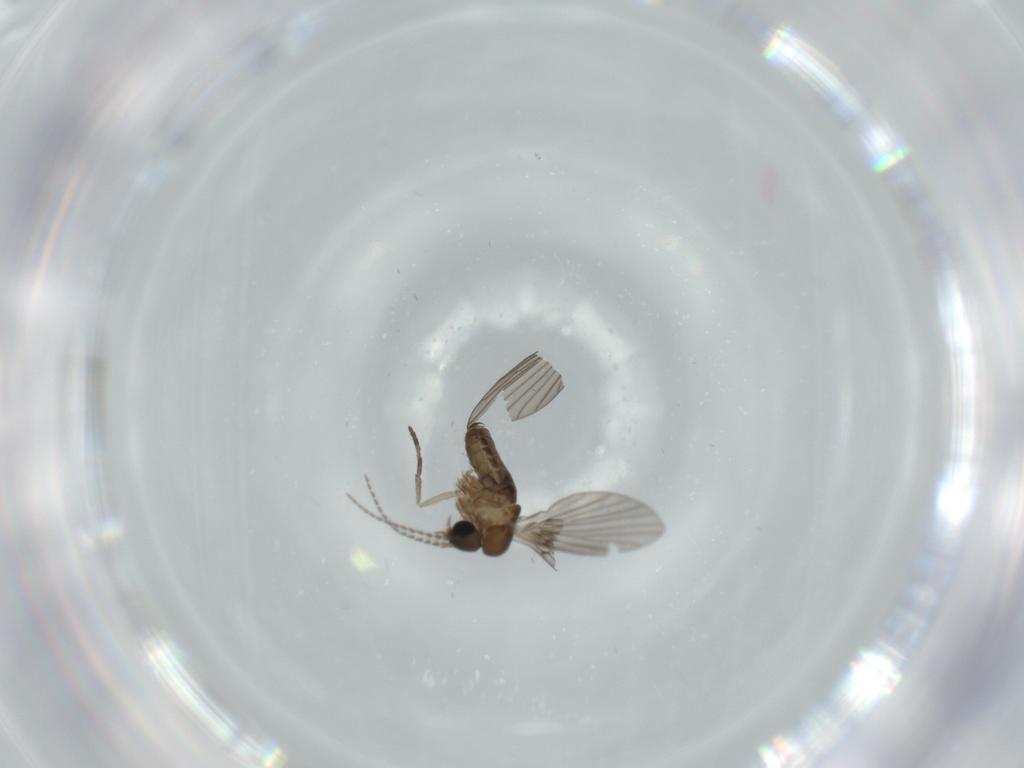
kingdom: Animalia
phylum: Arthropoda
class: Insecta
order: Diptera
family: Psychodidae
